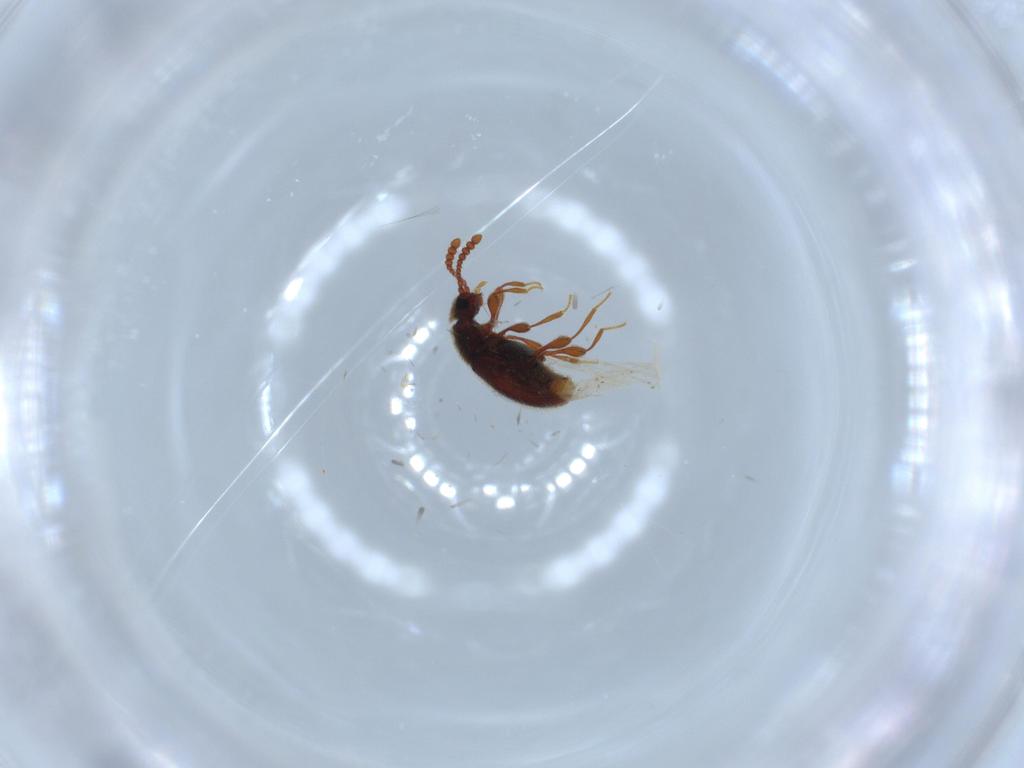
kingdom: Animalia
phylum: Arthropoda
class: Insecta
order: Coleoptera
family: Staphylinidae
